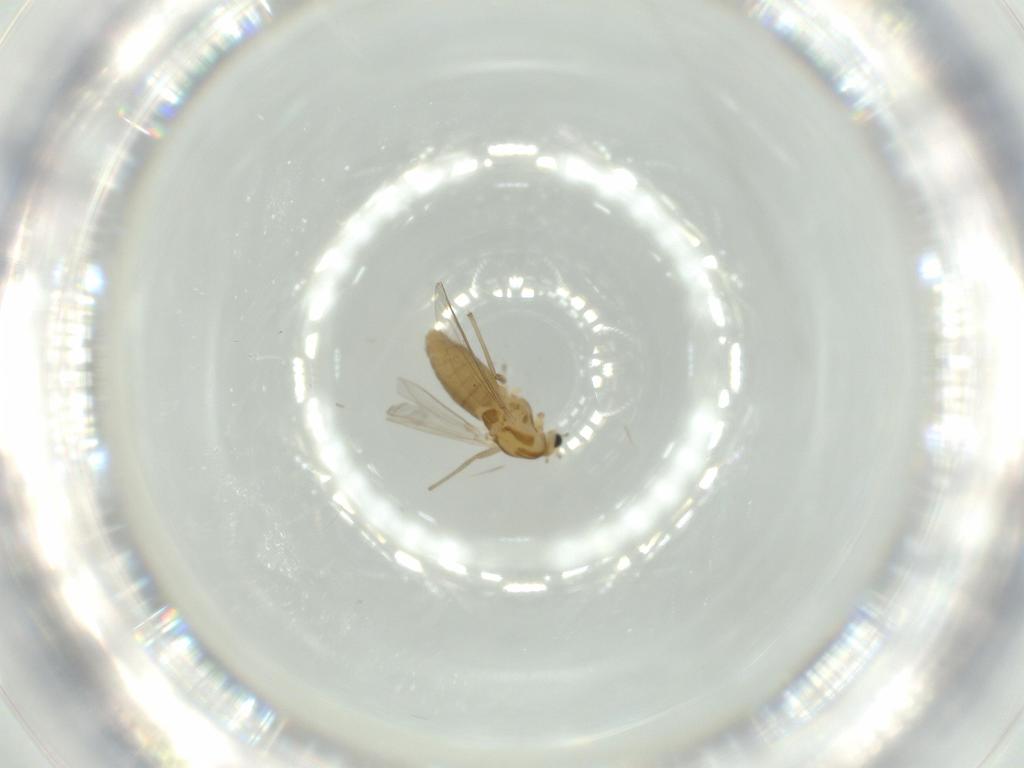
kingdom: Animalia
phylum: Arthropoda
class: Insecta
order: Diptera
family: Chironomidae
